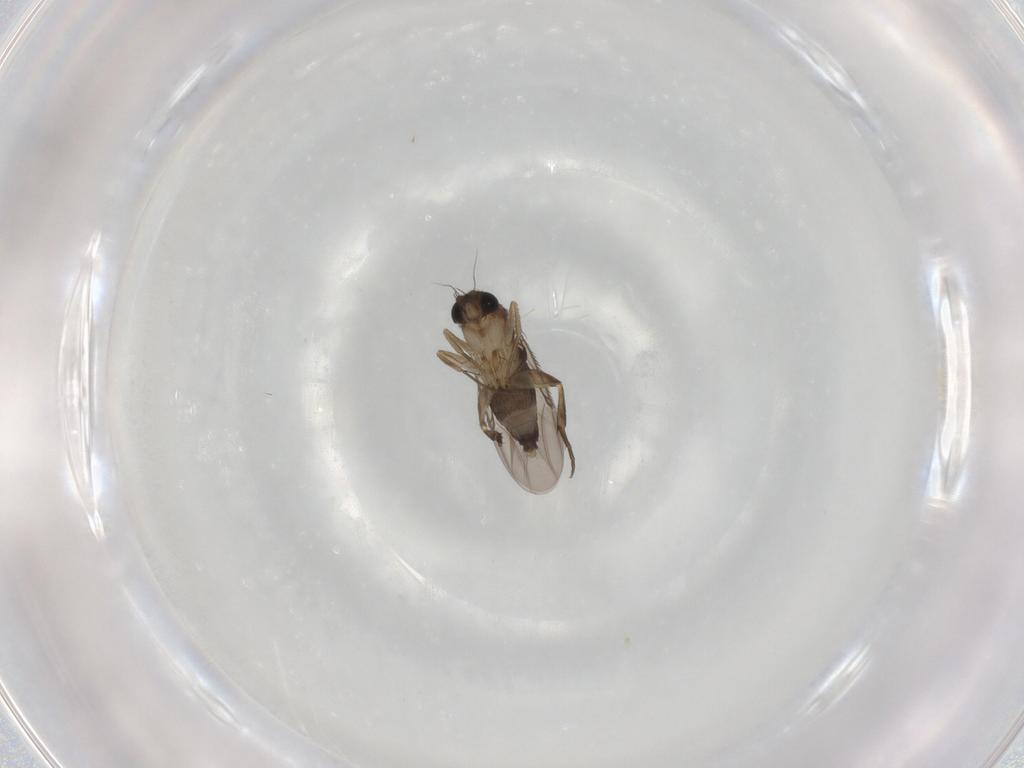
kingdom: Animalia
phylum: Arthropoda
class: Insecta
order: Diptera
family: Chironomidae
